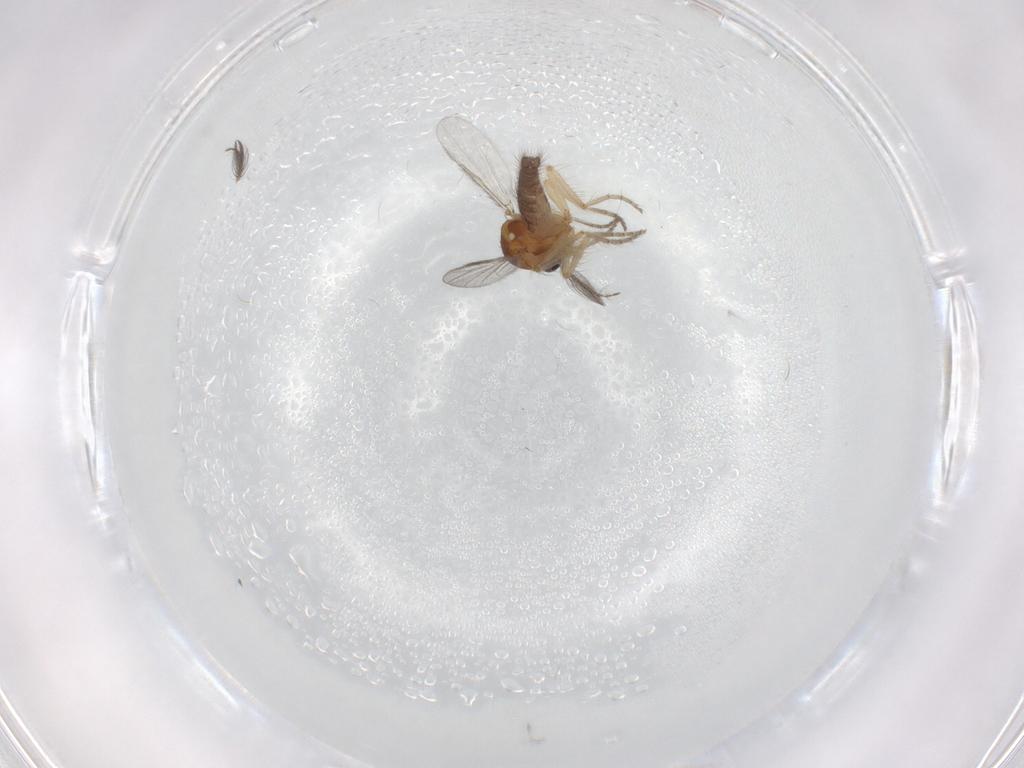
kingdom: Animalia
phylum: Arthropoda
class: Insecta
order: Diptera
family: Ceratopogonidae
